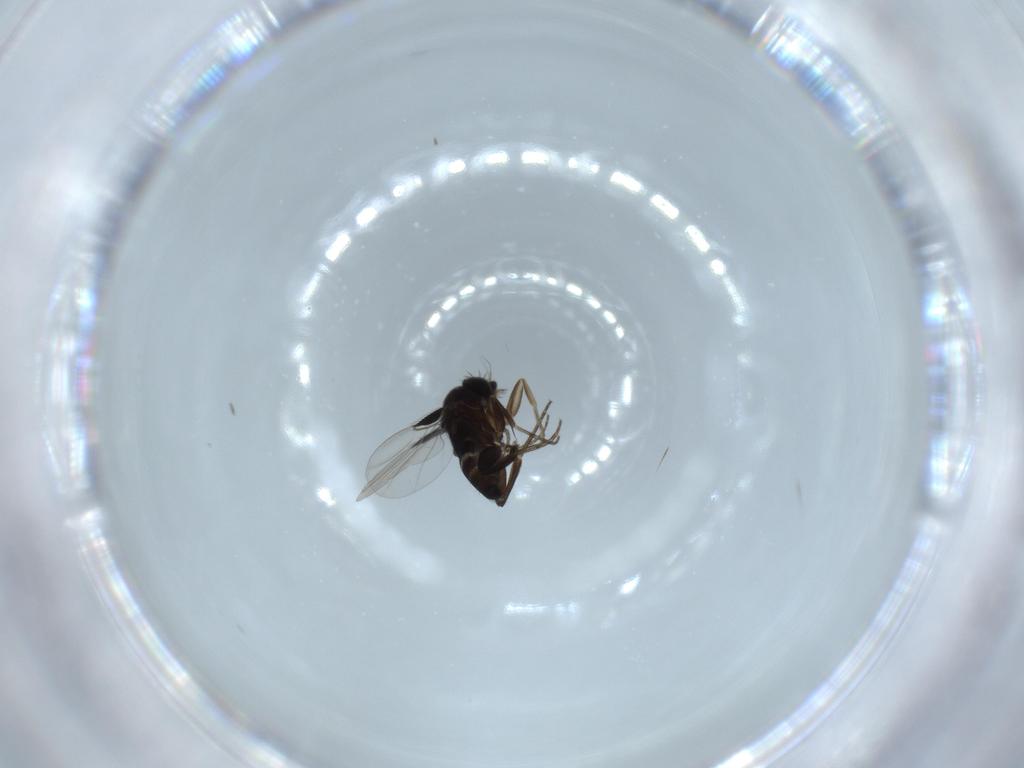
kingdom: Animalia
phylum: Arthropoda
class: Insecta
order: Diptera
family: Phoridae
